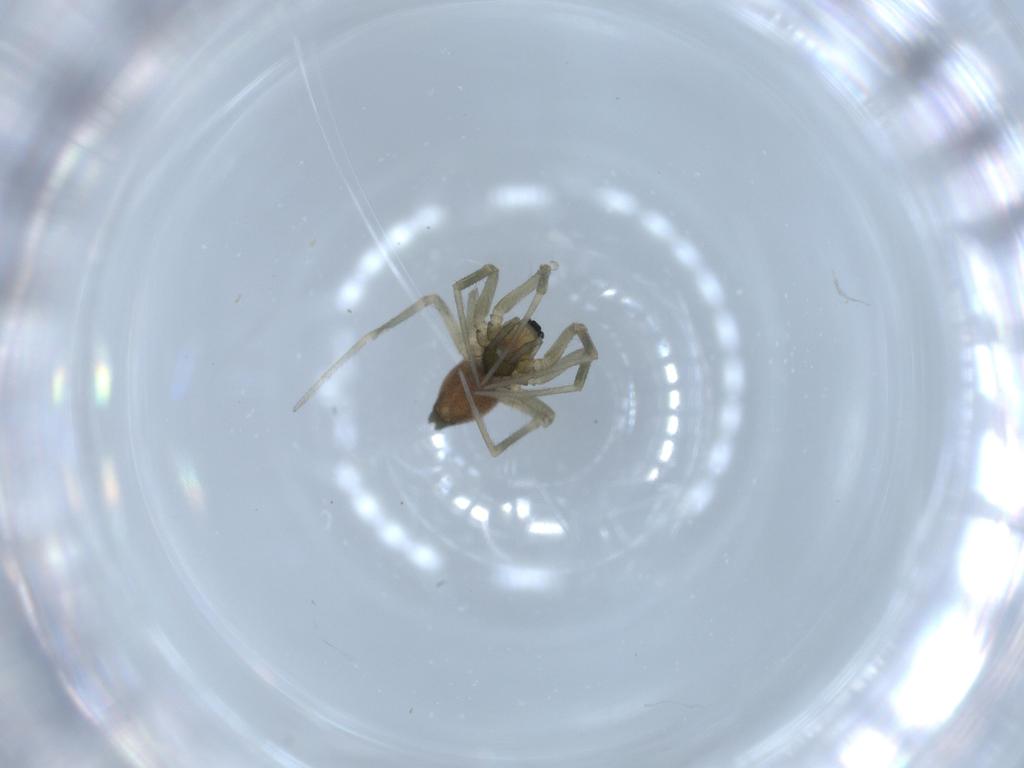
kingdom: Animalia
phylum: Arthropoda
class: Arachnida
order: Araneae
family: Linyphiidae
